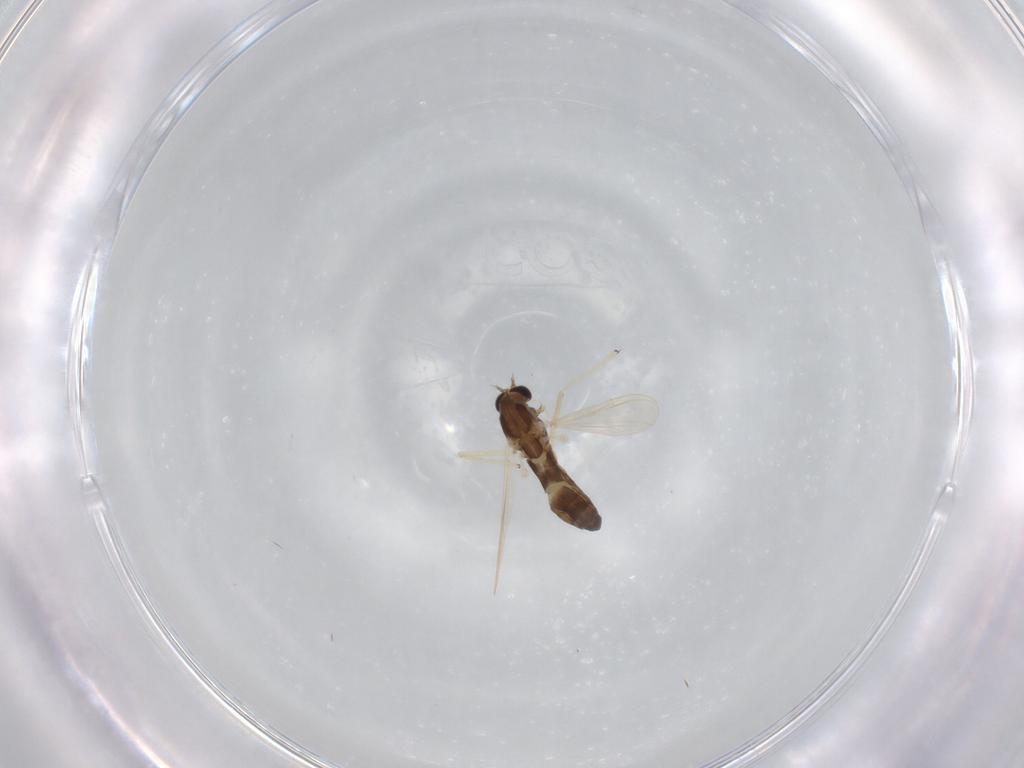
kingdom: Animalia
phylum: Arthropoda
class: Insecta
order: Diptera
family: Chironomidae
